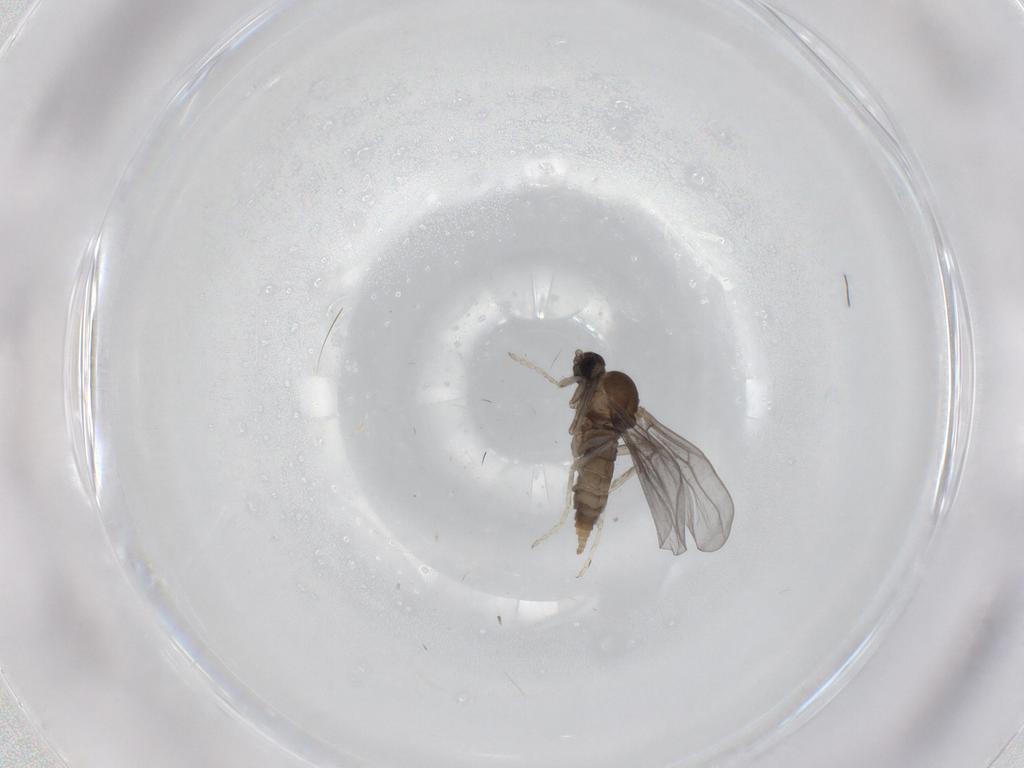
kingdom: Animalia
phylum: Arthropoda
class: Insecta
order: Diptera
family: Cecidomyiidae
